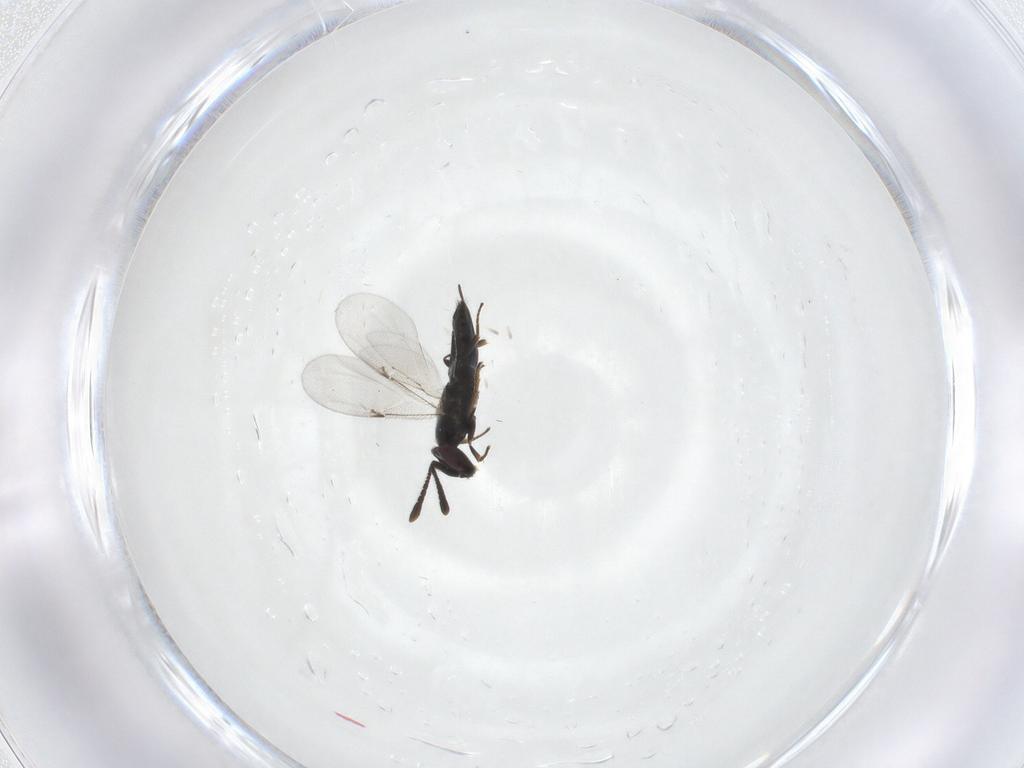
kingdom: Animalia
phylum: Arthropoda
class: Insecta
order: Hymenoptera
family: Encyrtidae
